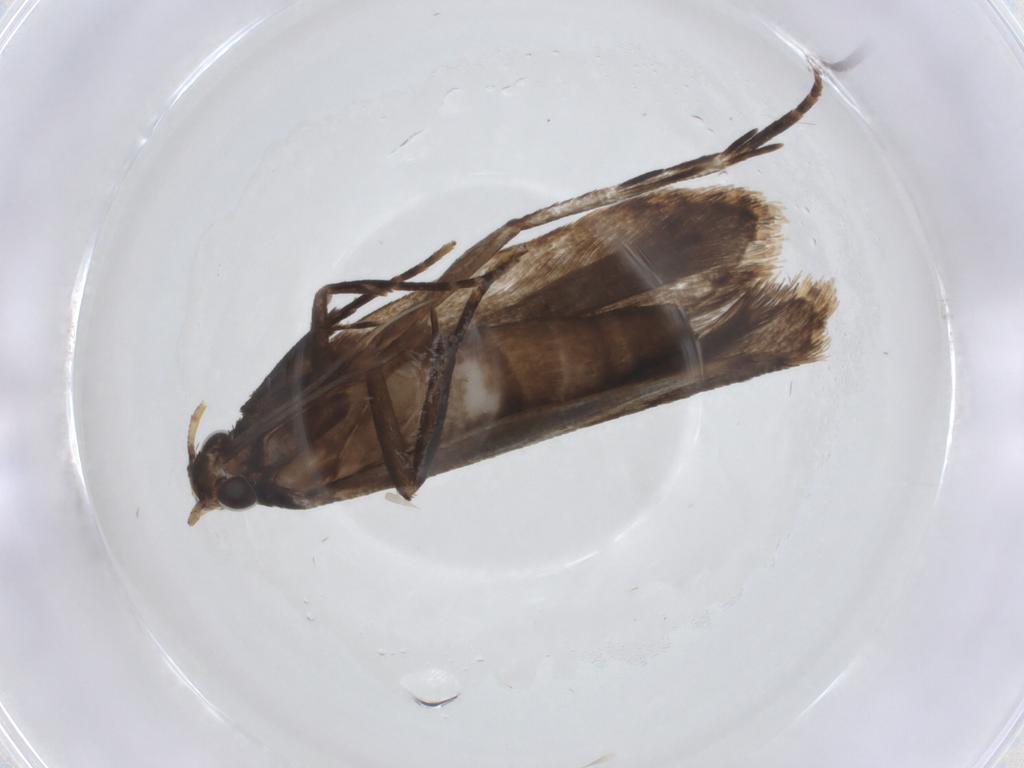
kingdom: Animalia
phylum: Arthropoda
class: Insecta
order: Lepidoptera
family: Gelechiidae
